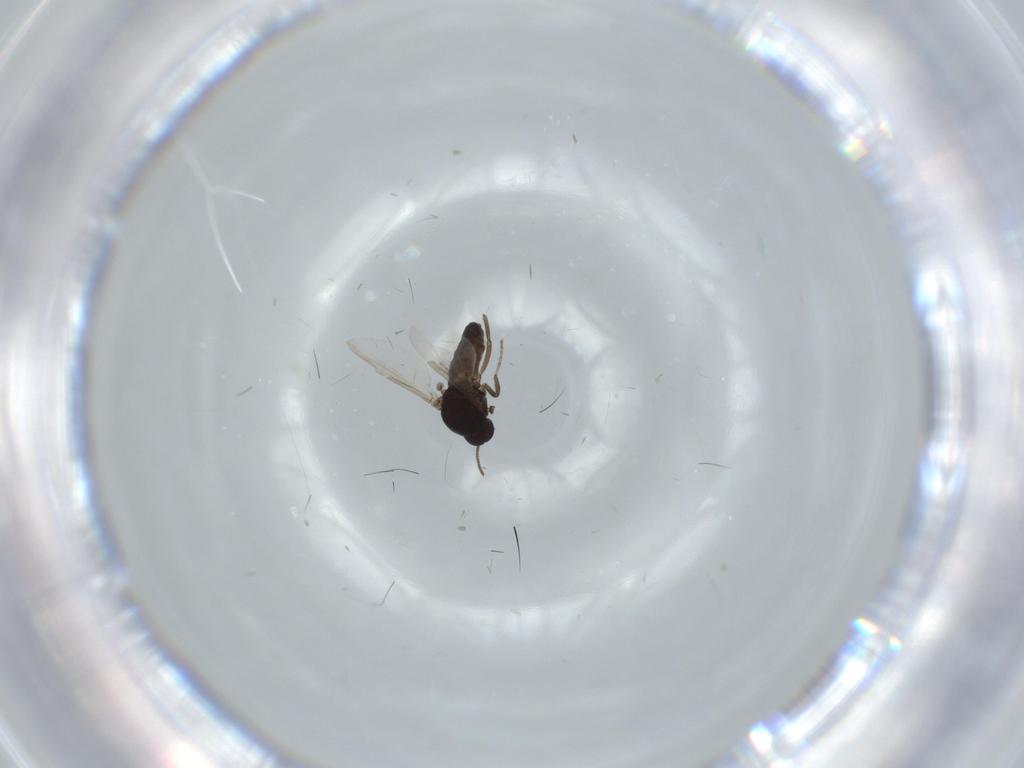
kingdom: Animalia
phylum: Arthropoda
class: Insecta
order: Diptera
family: Ceratopogonidae
